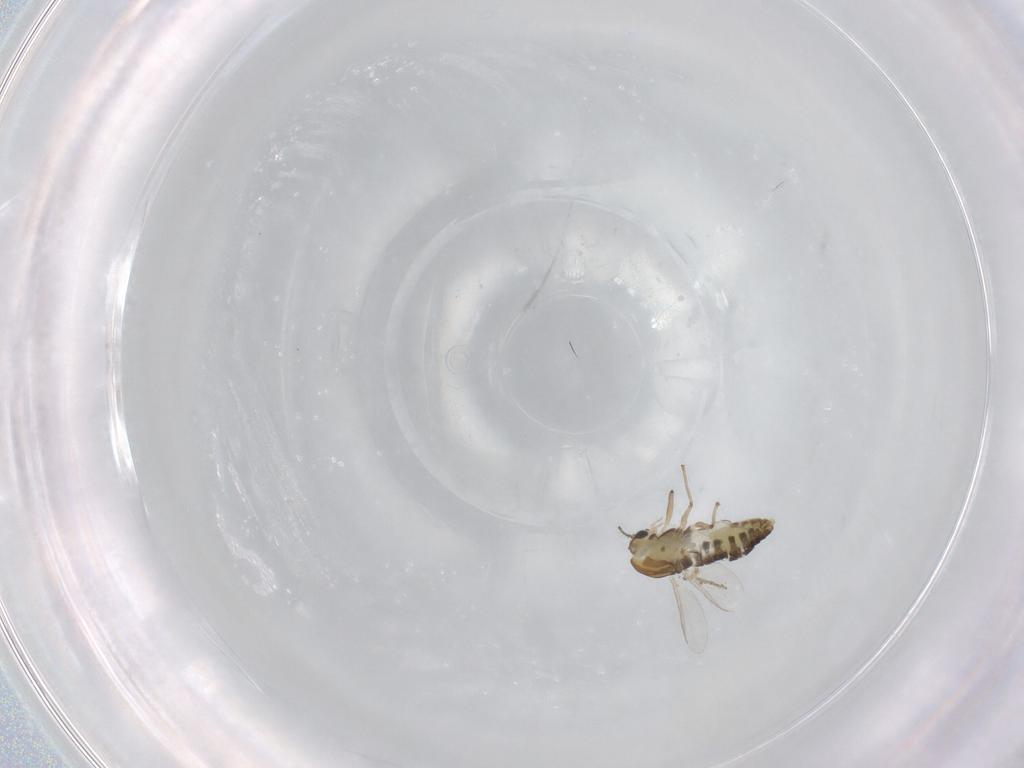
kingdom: Animalia
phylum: Arthropoda
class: Insecta
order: Diptera
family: Chironomidae
